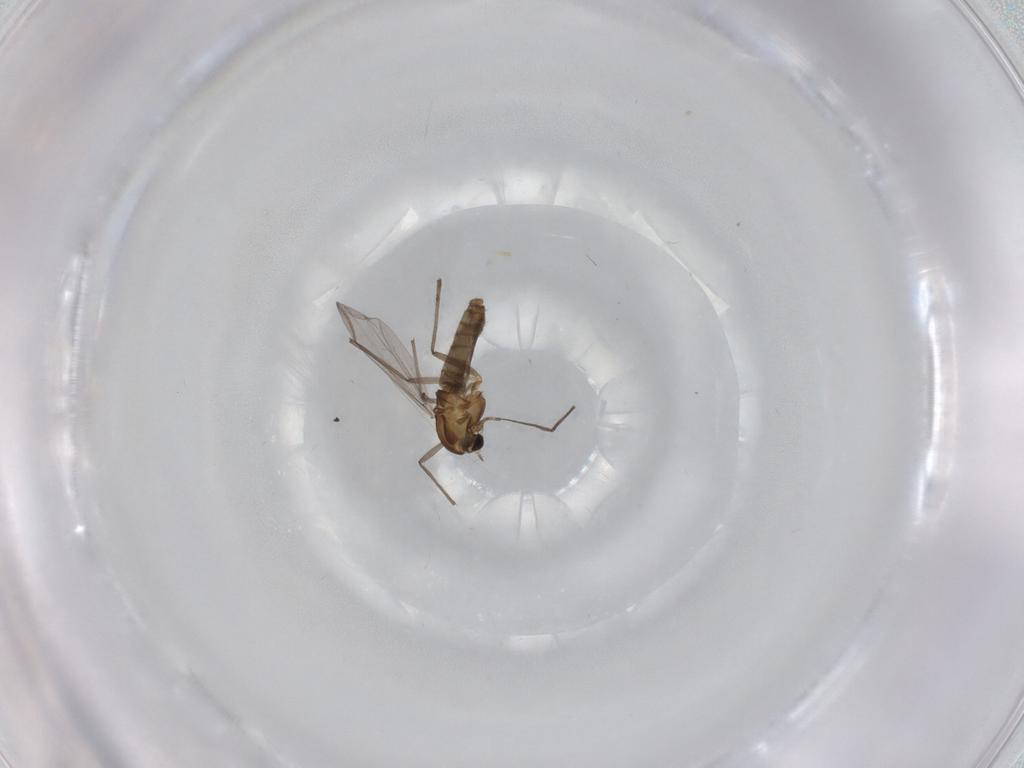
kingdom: Animalia
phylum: Arthropoda
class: Insecta
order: Diptera
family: Chironomidae
